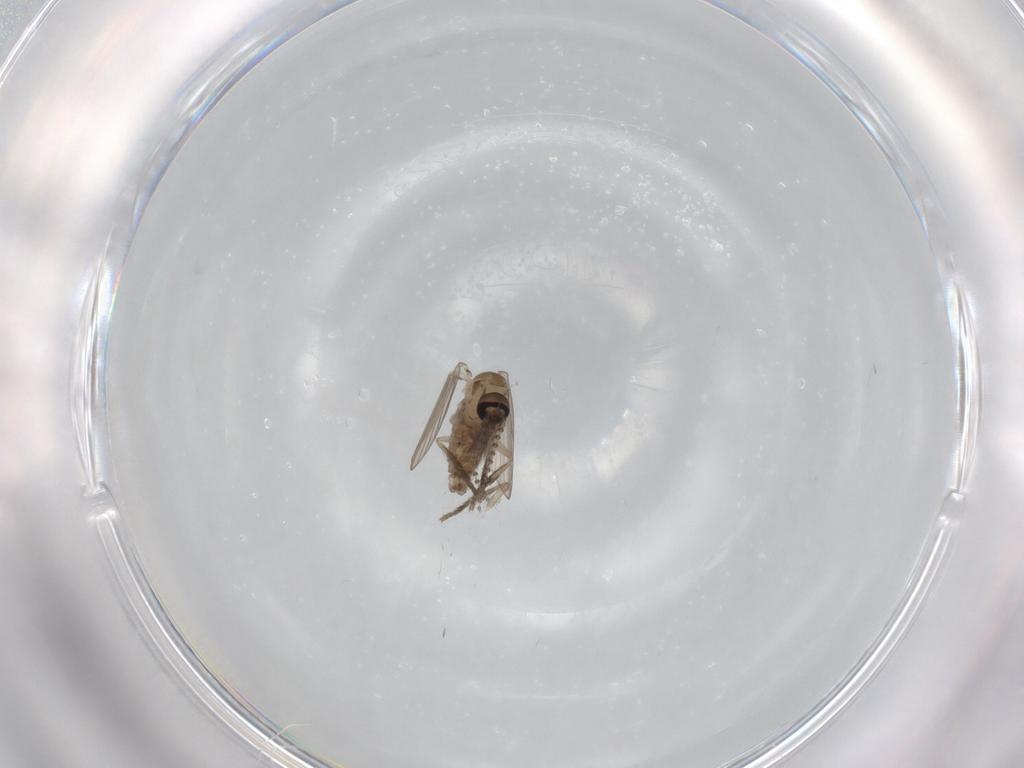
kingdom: Animalia
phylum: Arthropoda
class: Insecta
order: Diptera
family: Psychodidae
